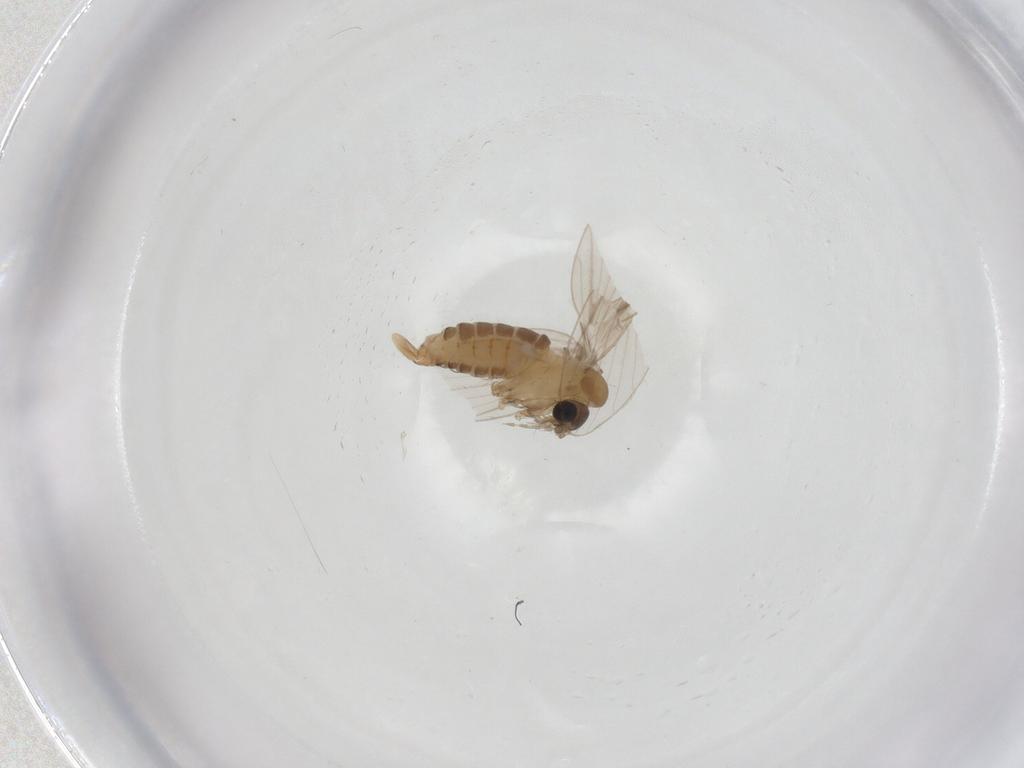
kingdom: Animalia
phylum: Arthropoda
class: Insecta
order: Diptera
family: Psychodidae
